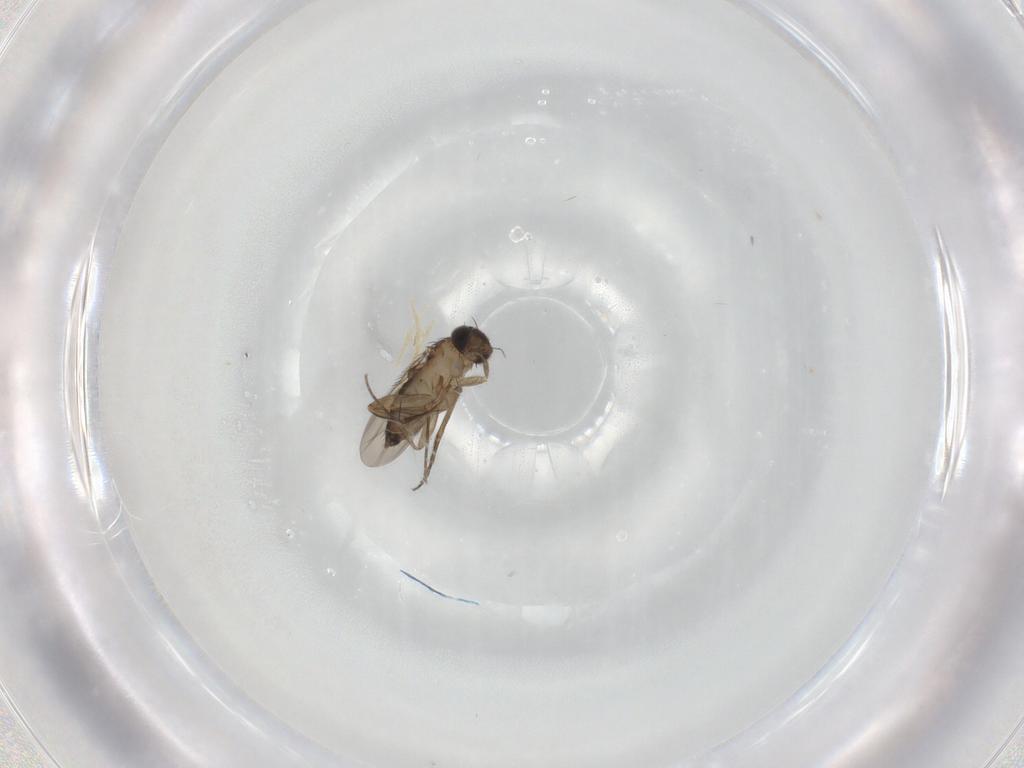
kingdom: Animalia
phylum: Arthropoda
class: Insecta
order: Diptera
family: Phoridae
